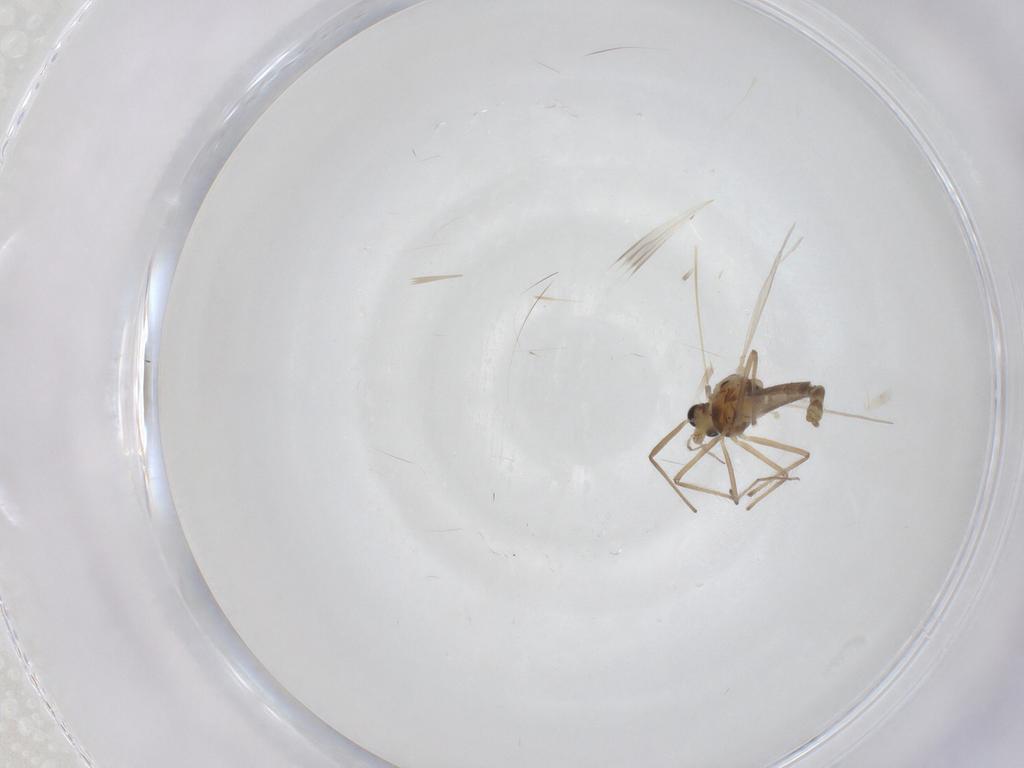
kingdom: Animalia
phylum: Arthropoda
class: Insecta
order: Diptera
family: Chironomidae
